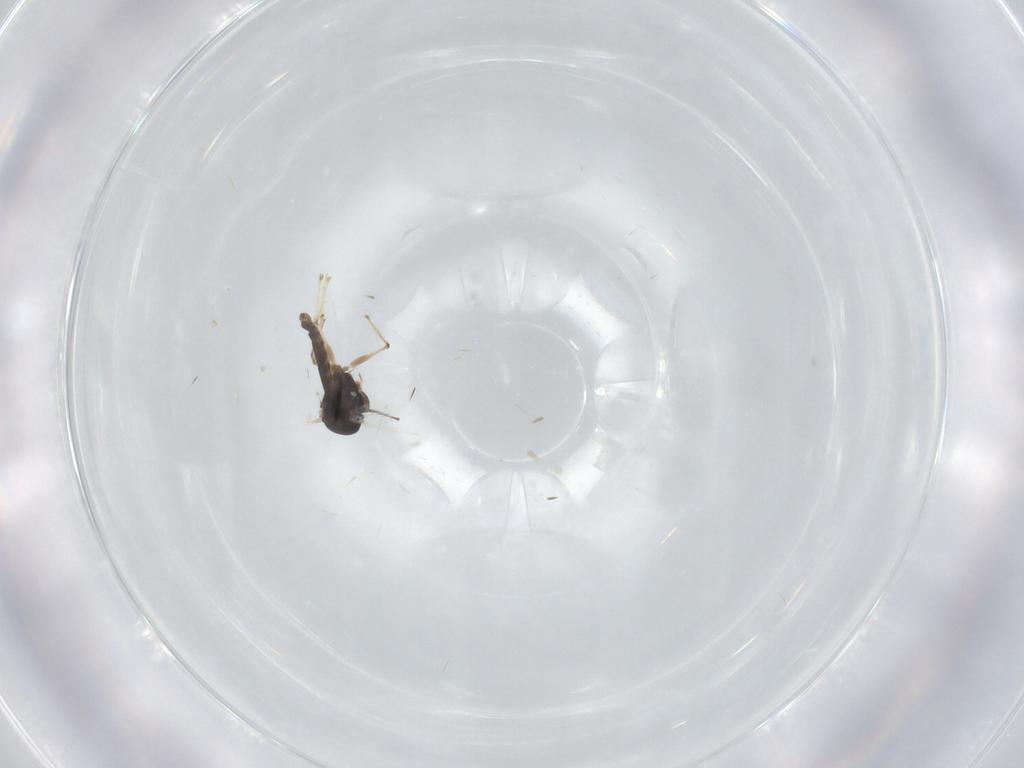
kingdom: Animalia
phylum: Arthropoda
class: Insecta
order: Diptera
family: Chironomidae
